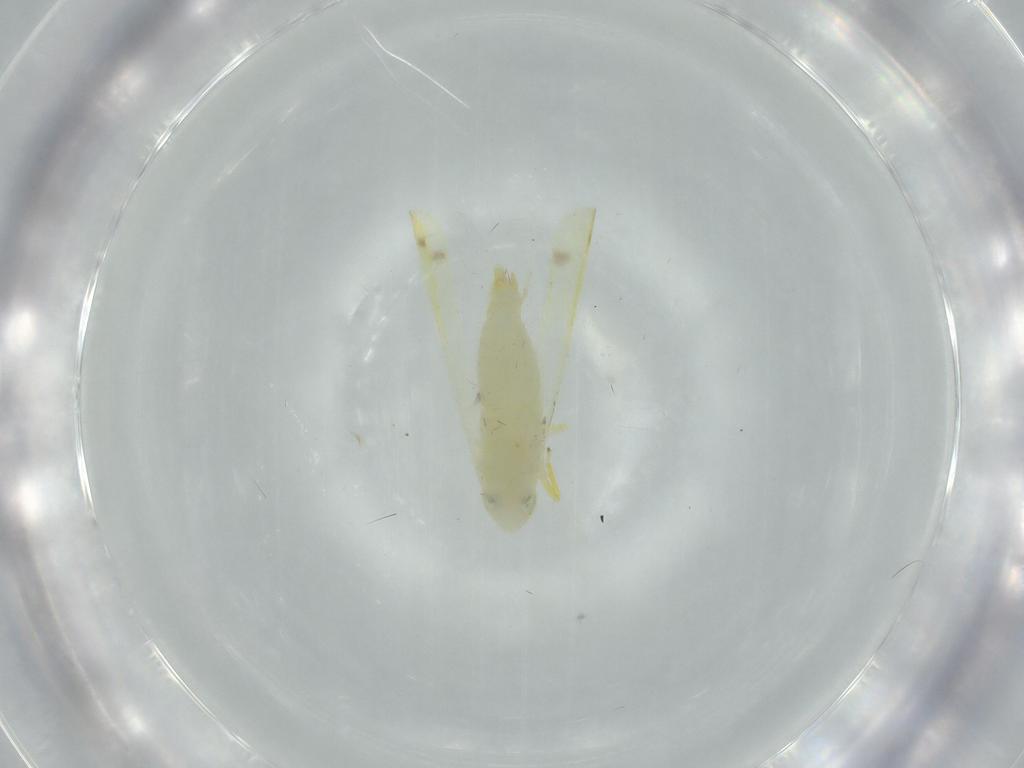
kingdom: Animalia
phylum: Arthropoda
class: Insecta
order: Hemiptera
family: Cicadellidae
